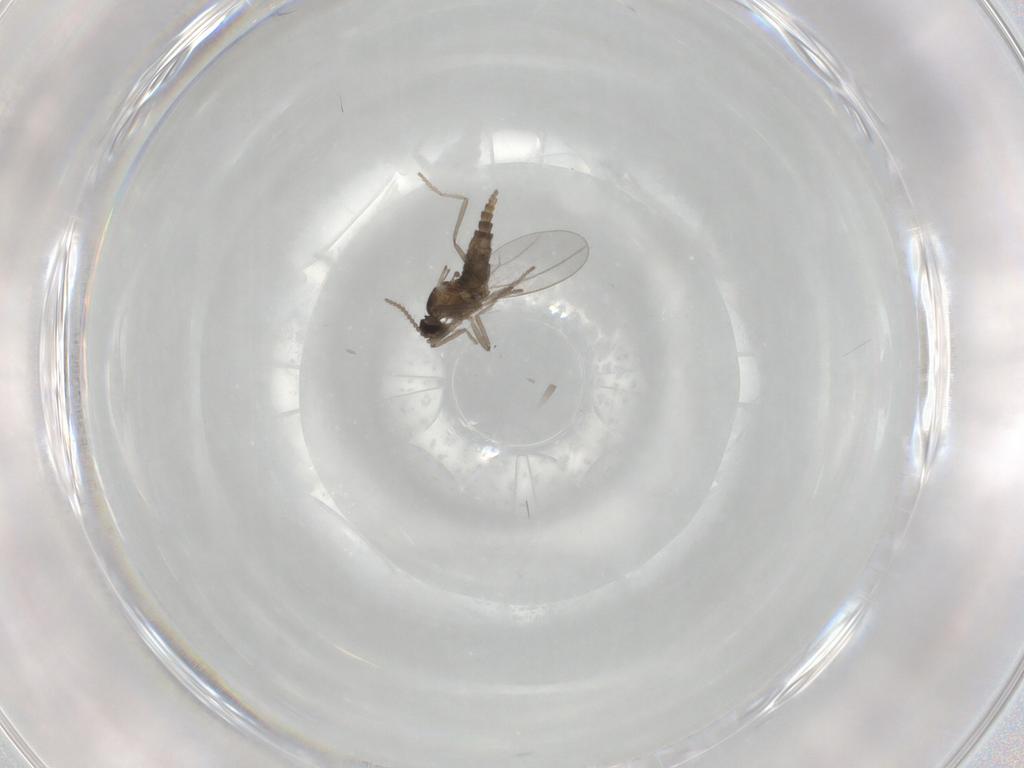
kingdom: Animalia
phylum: Arthropoda
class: Insecta
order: Diptera
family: Cecidomyiidae
